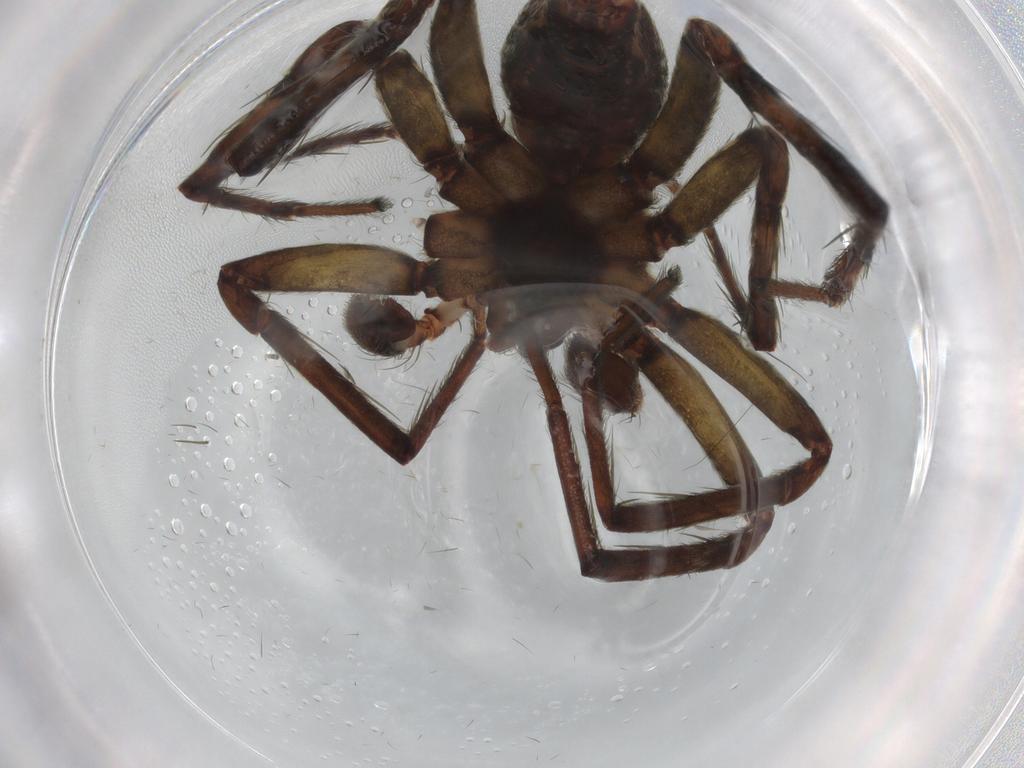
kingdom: Animalia
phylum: Arthropoda
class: Arachnida
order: Araneae
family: Anyphaenidae
